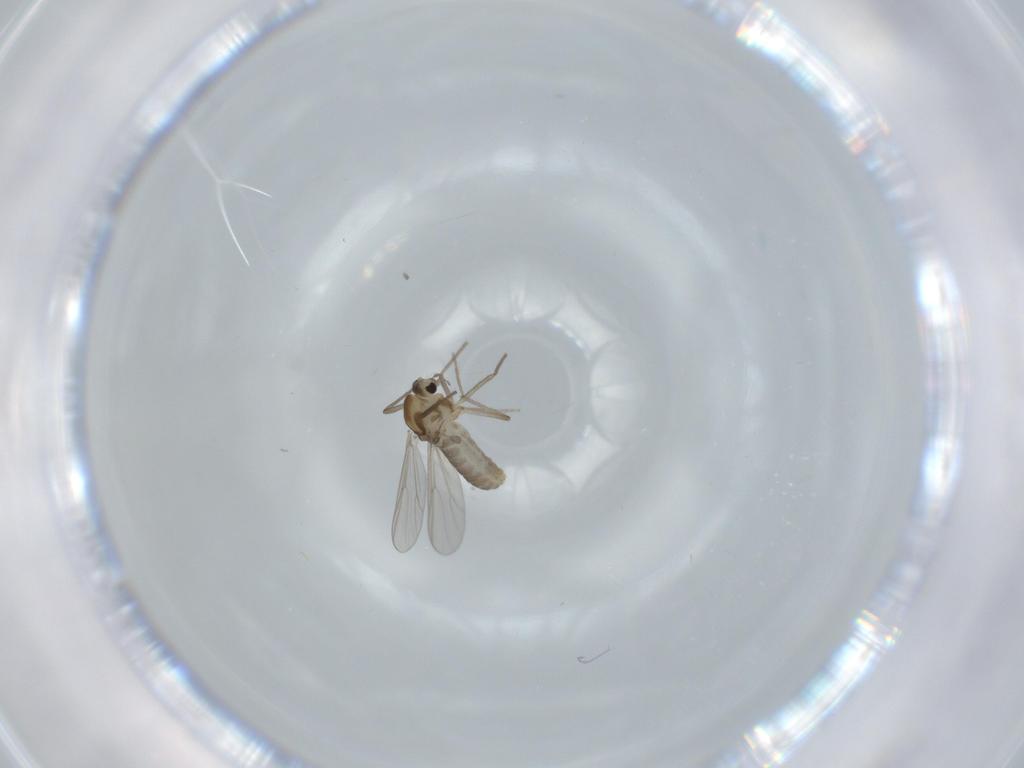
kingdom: Animalia
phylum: Arthropoda
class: Insecta
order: Diptera
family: Chironomidae
